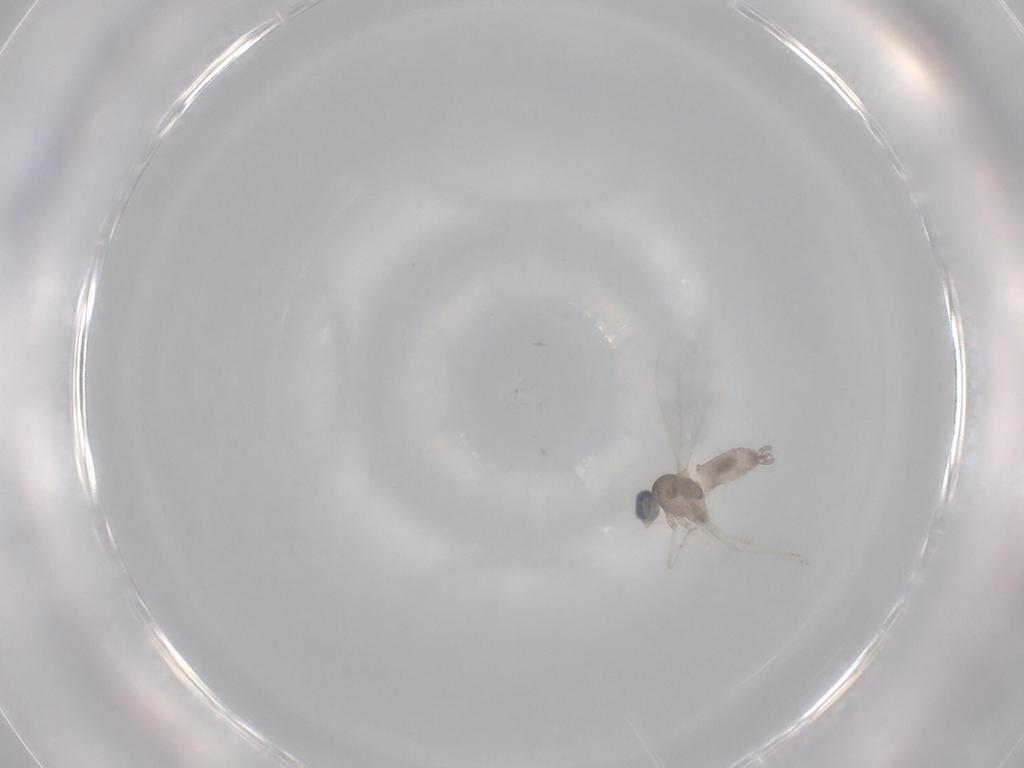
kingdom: Animalia
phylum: Arthropoda
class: Insecta
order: Diptera
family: Cecidomyiidae
